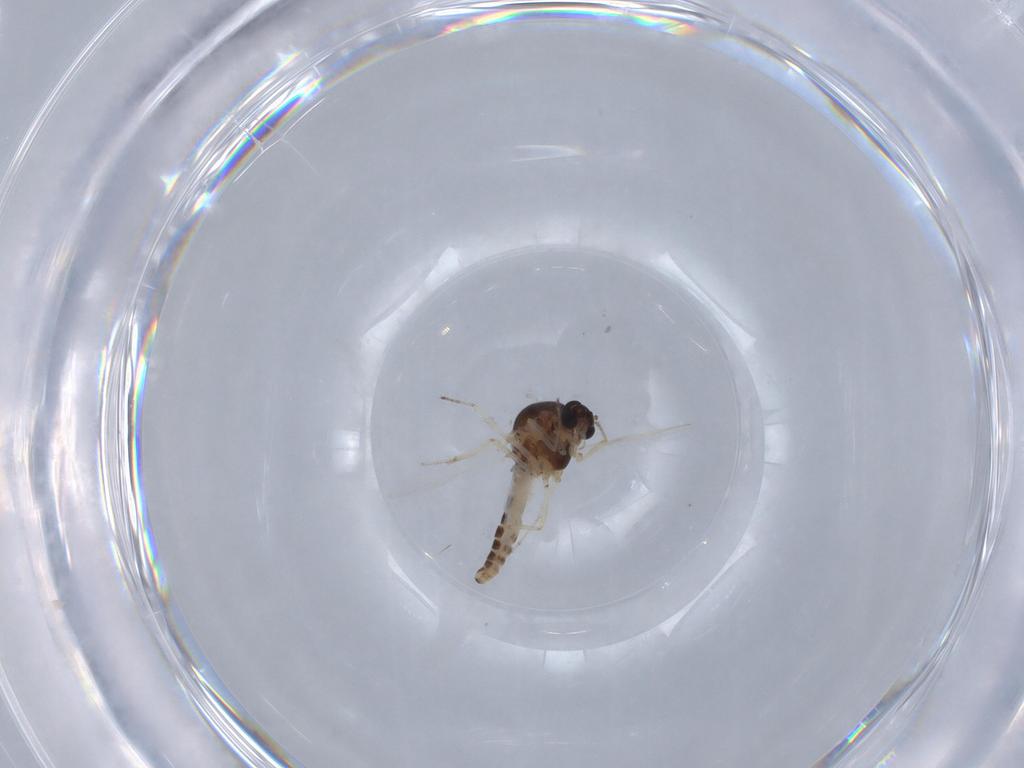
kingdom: Animalia
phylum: Arthropoda
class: Insecta
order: Diptera
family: Ceratopogonidae
